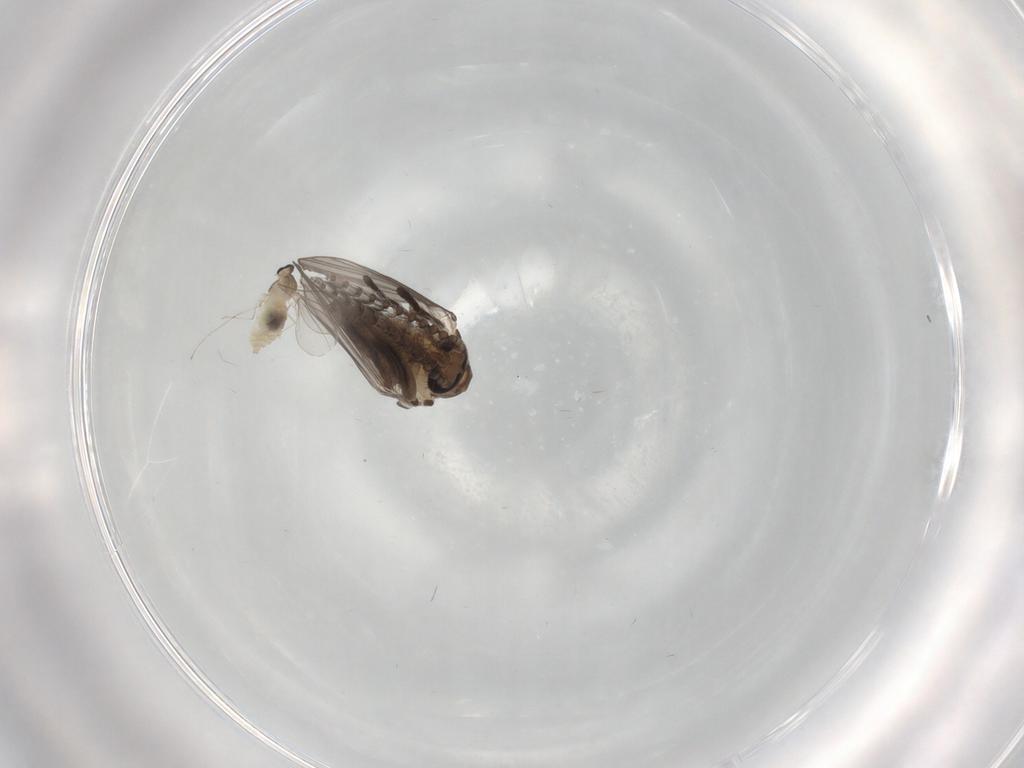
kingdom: Animalia
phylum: Arthropoda
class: Insecta
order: Diptera
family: Cecidomyiidae
